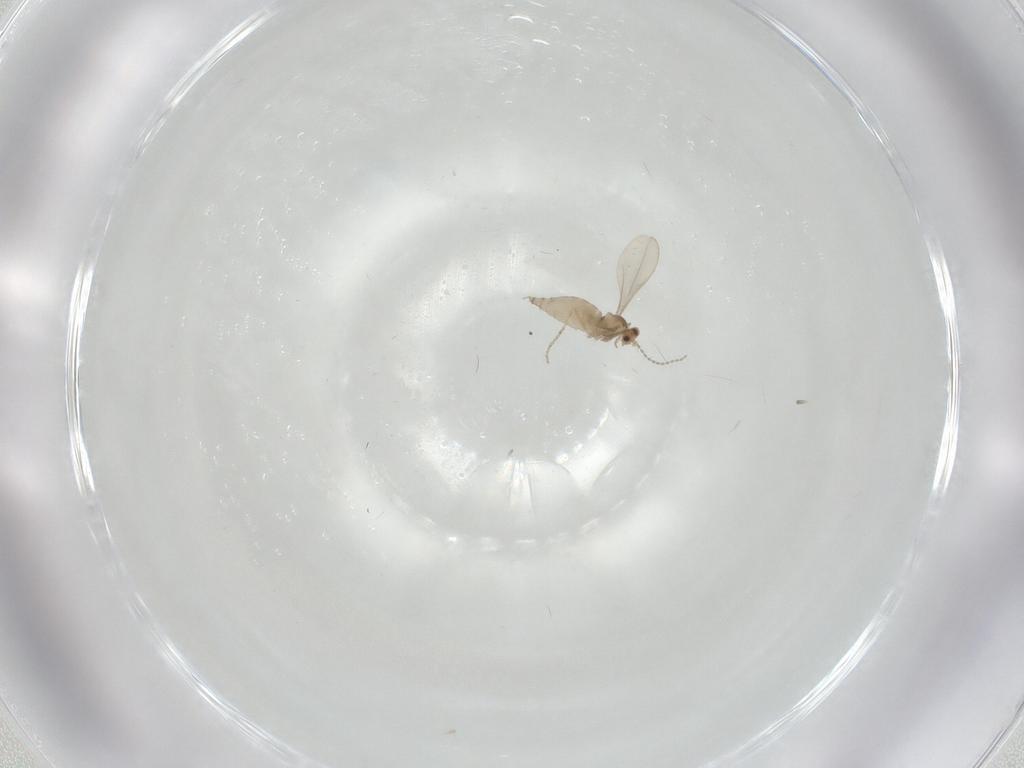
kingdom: Animalia
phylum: Arthropoda
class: Insecta
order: Diptera
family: Cecidomyiidae
